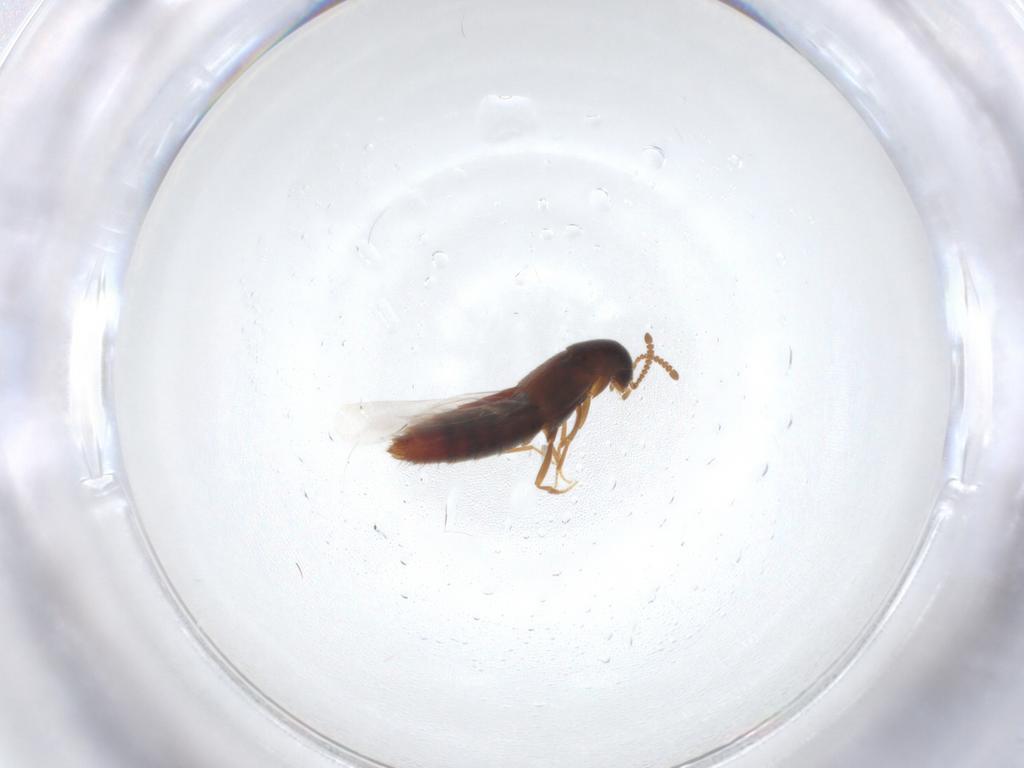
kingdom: Animalia
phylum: Arthropoda
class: Insecta
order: Coleoptera
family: Staphylinidae
